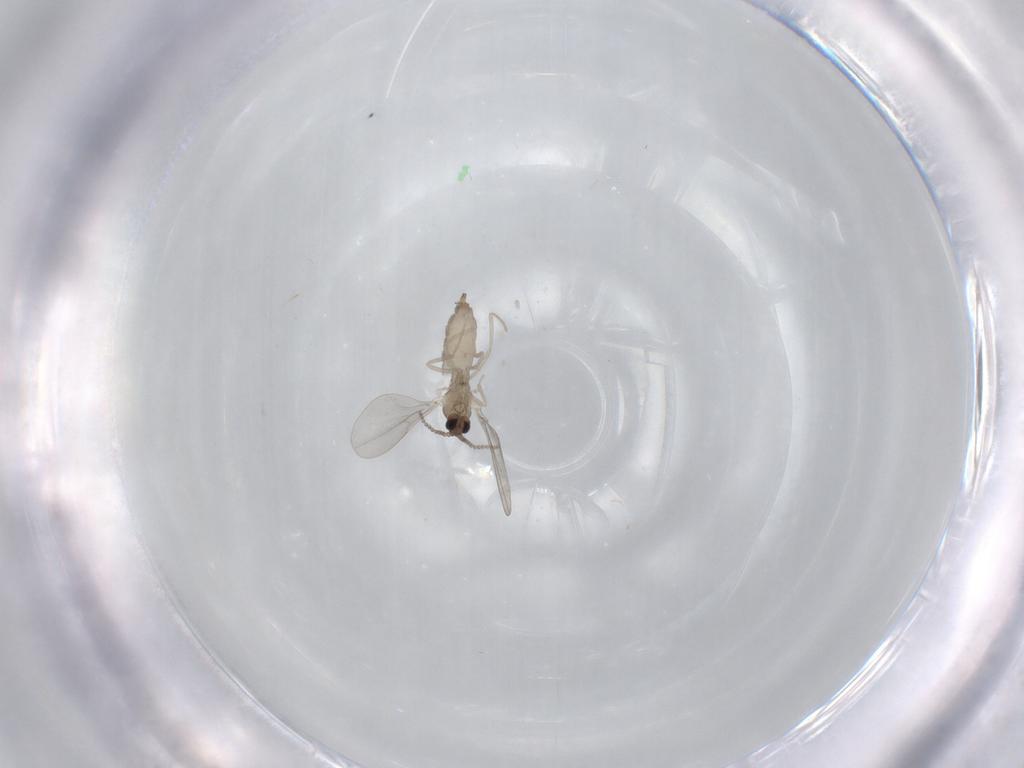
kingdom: Animalia
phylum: Arthropoda
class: Insecta
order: Diptera
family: Cecidomyiidae
